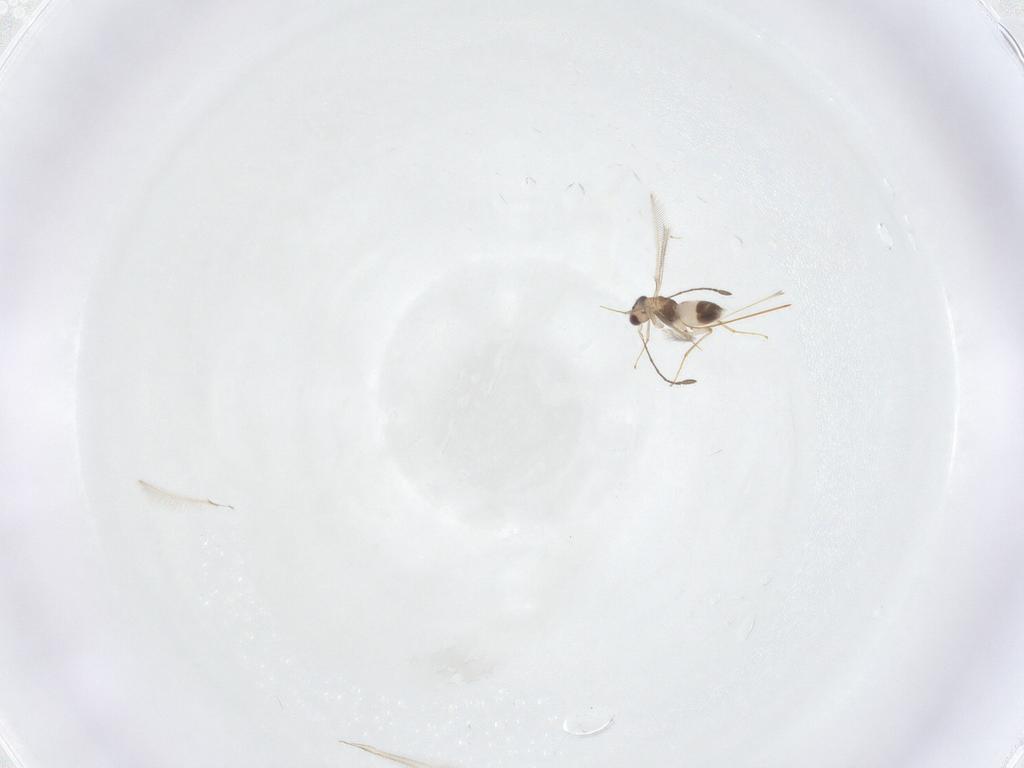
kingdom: Animalia
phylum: Arthropoda
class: Insecta
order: Hymenoptera
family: Mymaridae
